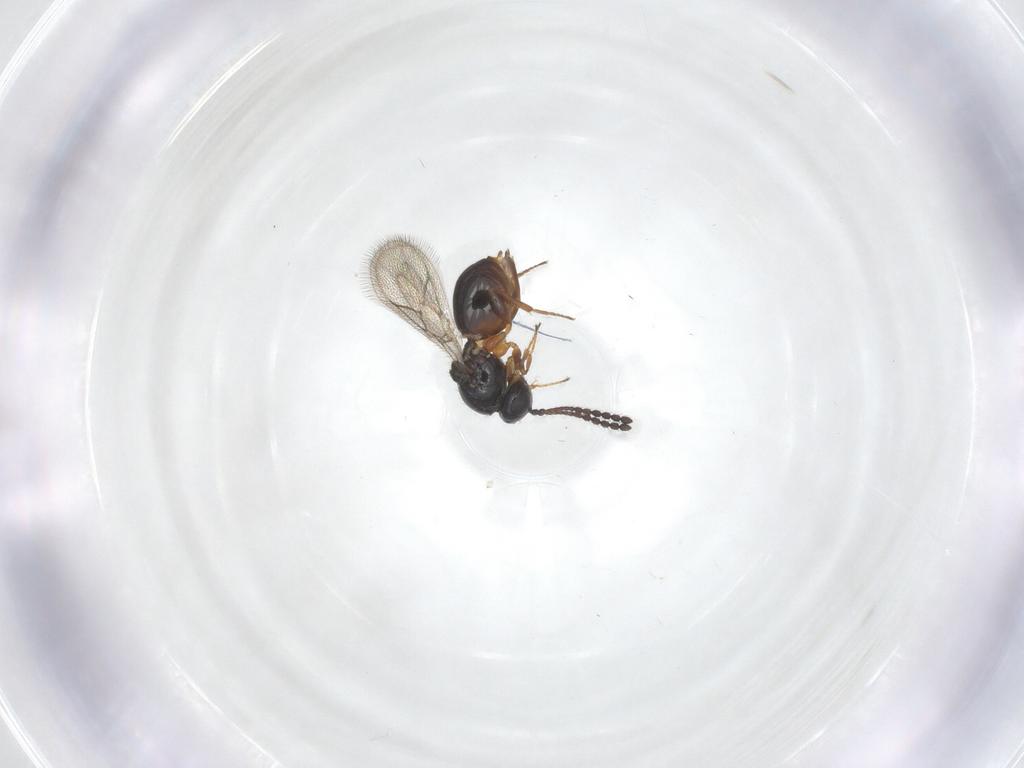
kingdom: Animalia
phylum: Arthropoda
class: Insecta
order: Hymenoptera
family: Figitidae
